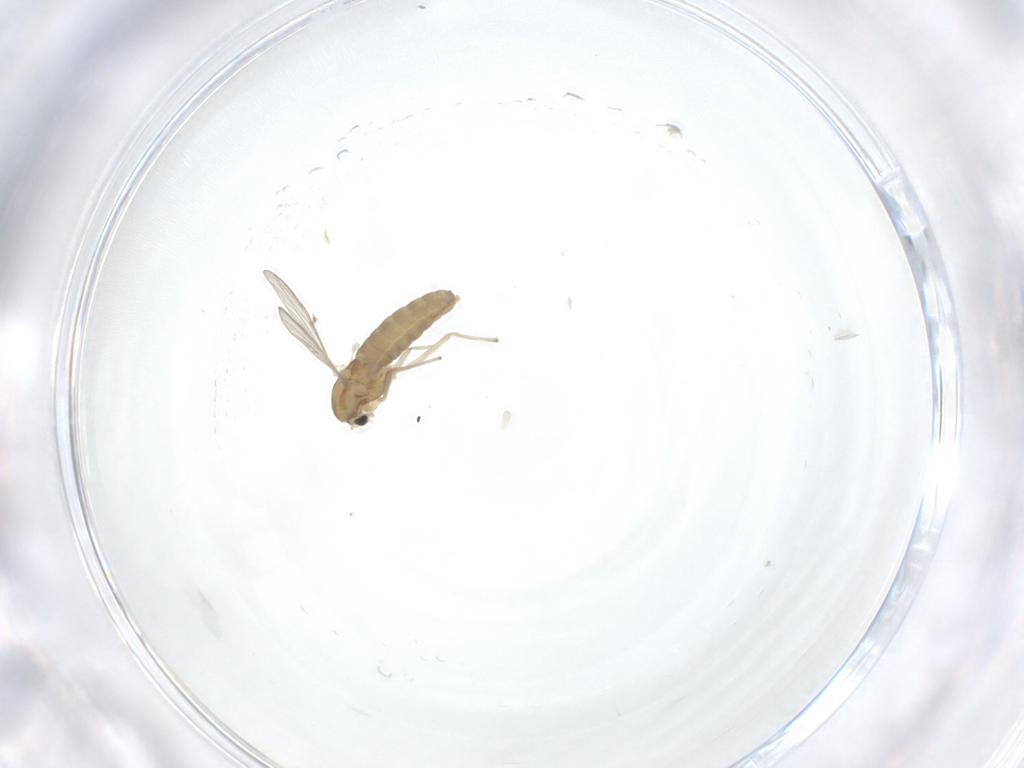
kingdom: Animalia
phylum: Arthropoda
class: Insecta
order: Diptera
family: Chironomidae
